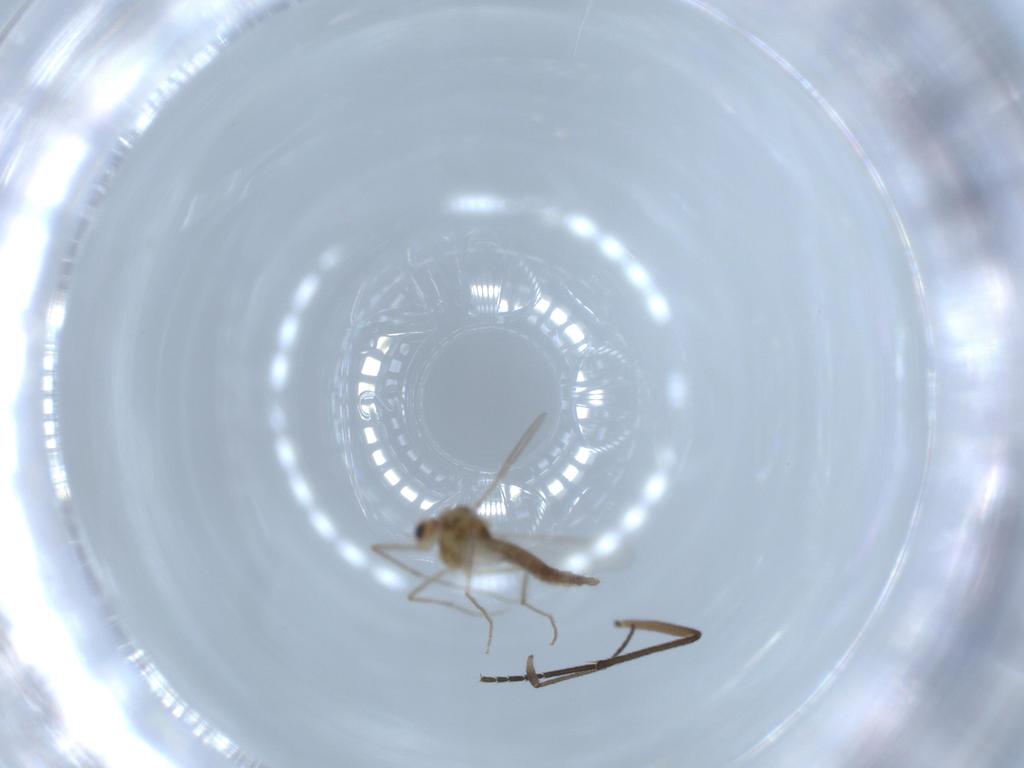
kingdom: Animalia
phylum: Arthropoda
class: Insecta
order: Diptera
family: Chironomidae
